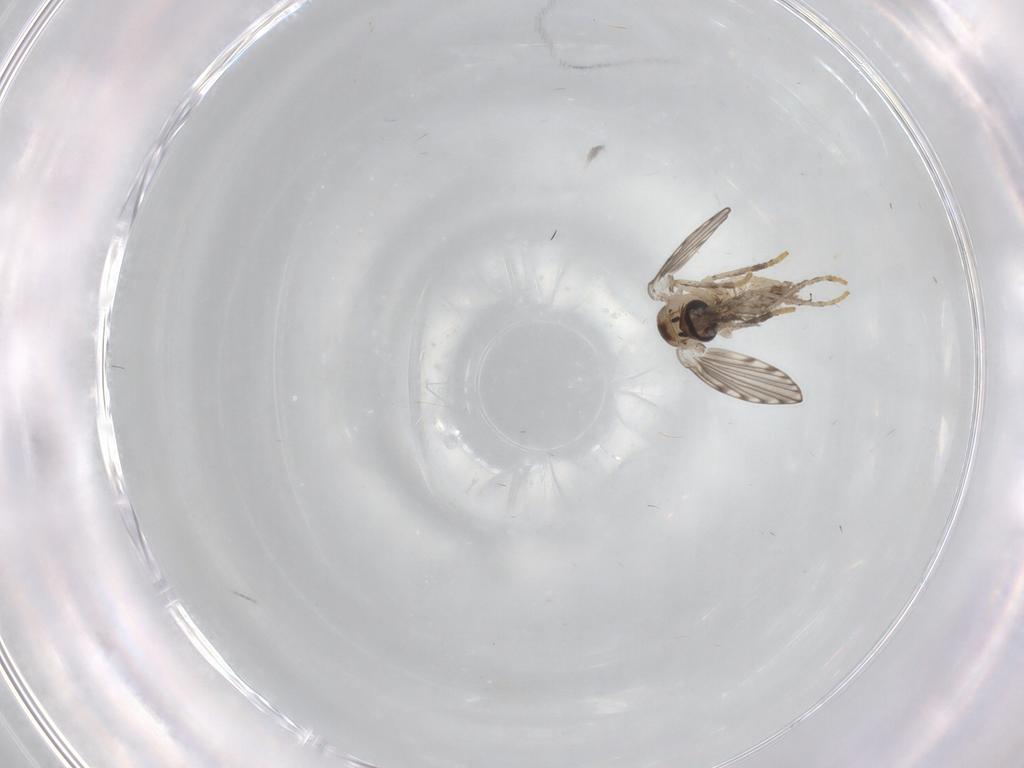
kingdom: Animalia
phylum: Arthropoda
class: Insecta
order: Diptera
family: Psychodidae
